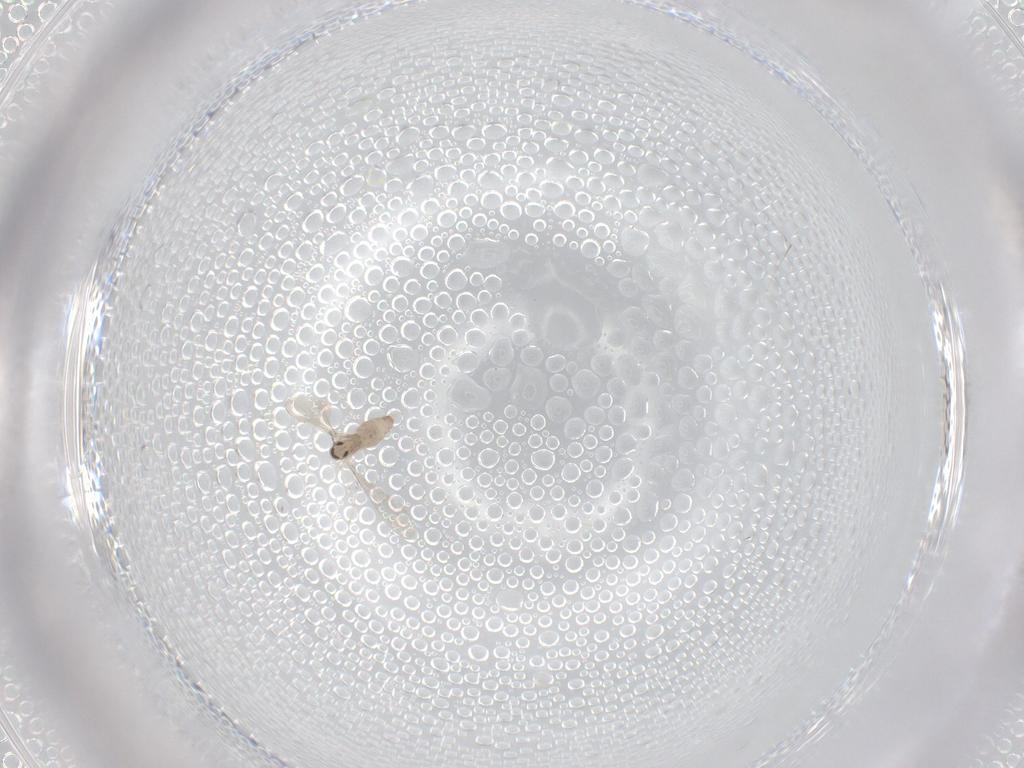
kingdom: Animalia
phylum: Arthropoda
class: Insecta
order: Diptera
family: Cecidomyiidae
